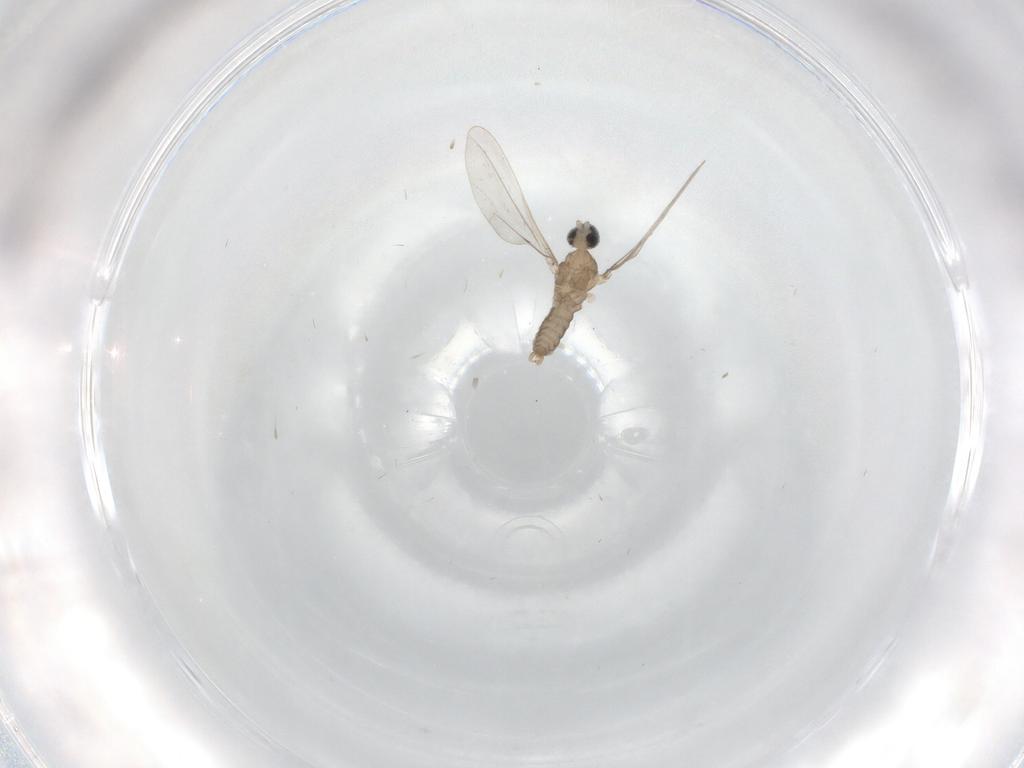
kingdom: Animalia
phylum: Arthropoda
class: Insecta
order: Diptera
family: Cecidomyiidae
